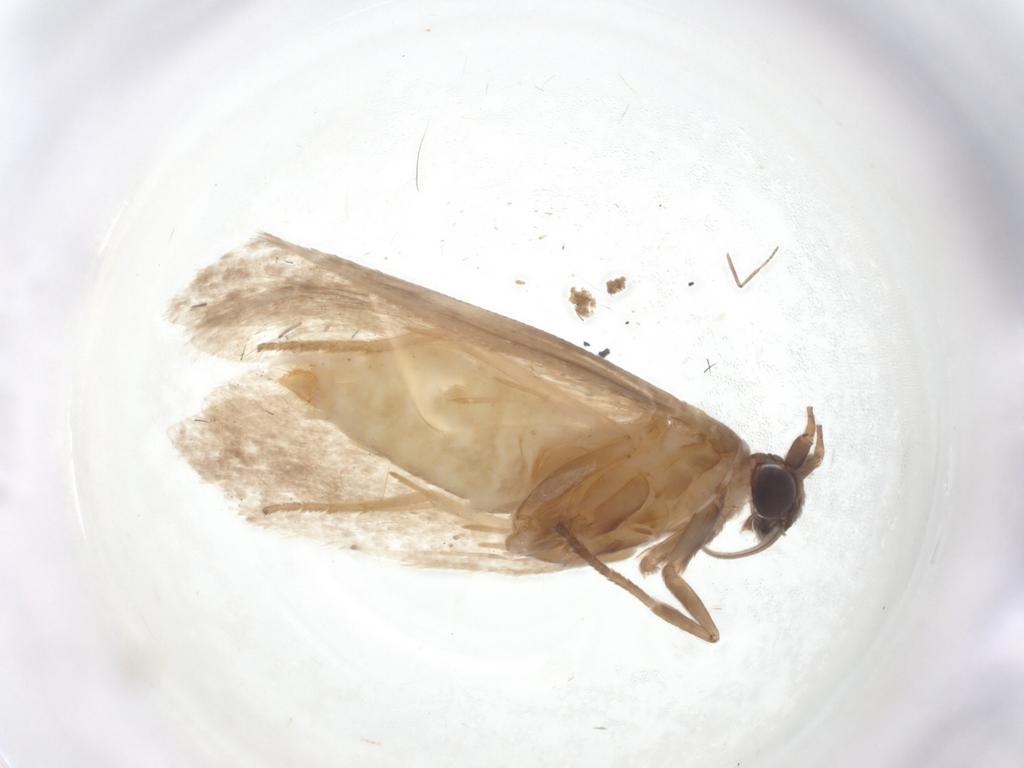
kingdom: Animalia
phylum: Arthropoda
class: Insecta
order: Lepidoptera
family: Roeslerstammiidae
